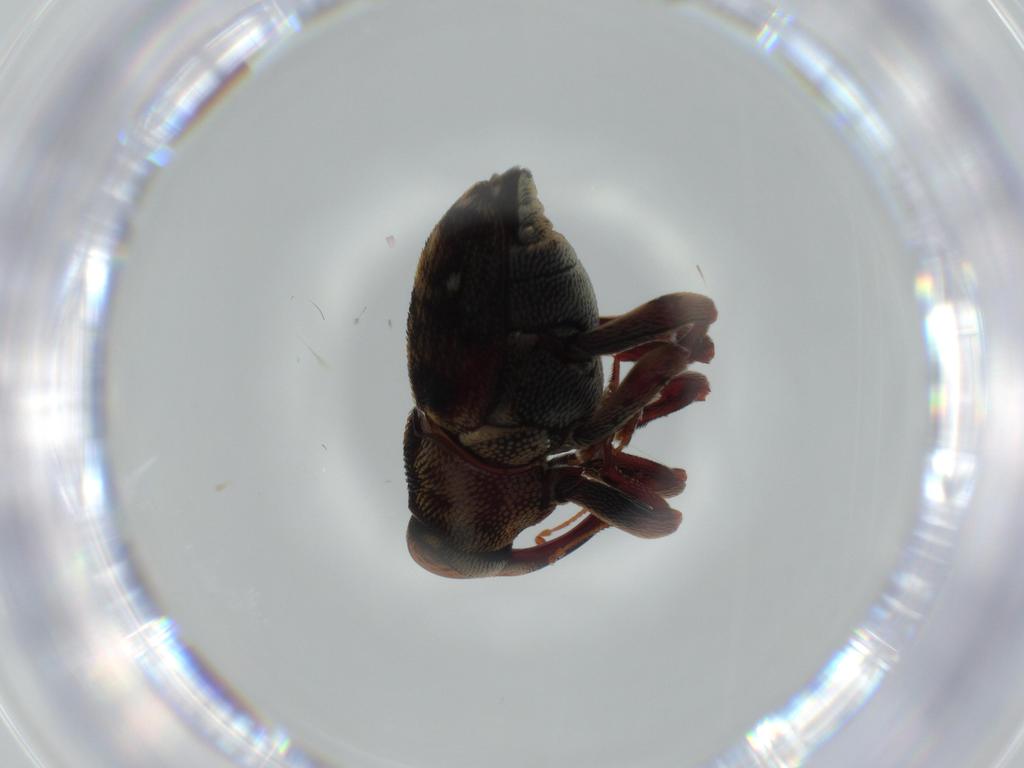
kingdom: Animalia
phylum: Arthropoda
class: Insecta
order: Coleoptera
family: Curculionidae
